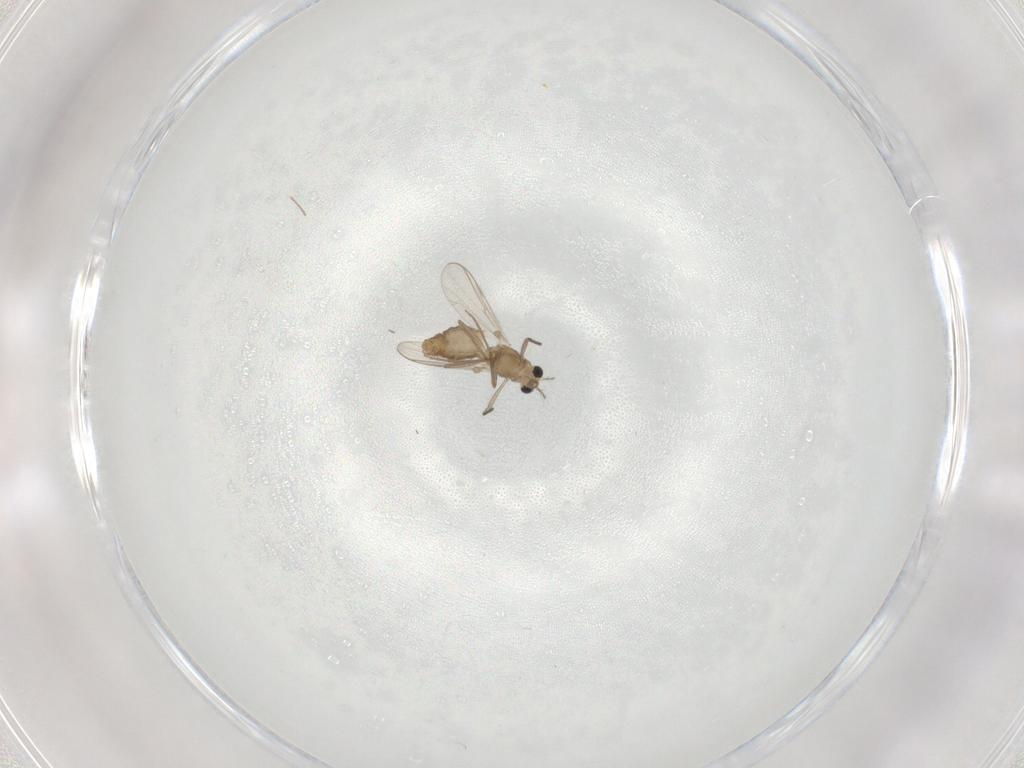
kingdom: Animalia
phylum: Arthropoda
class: Insecta
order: Diptera
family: Chironomidae
